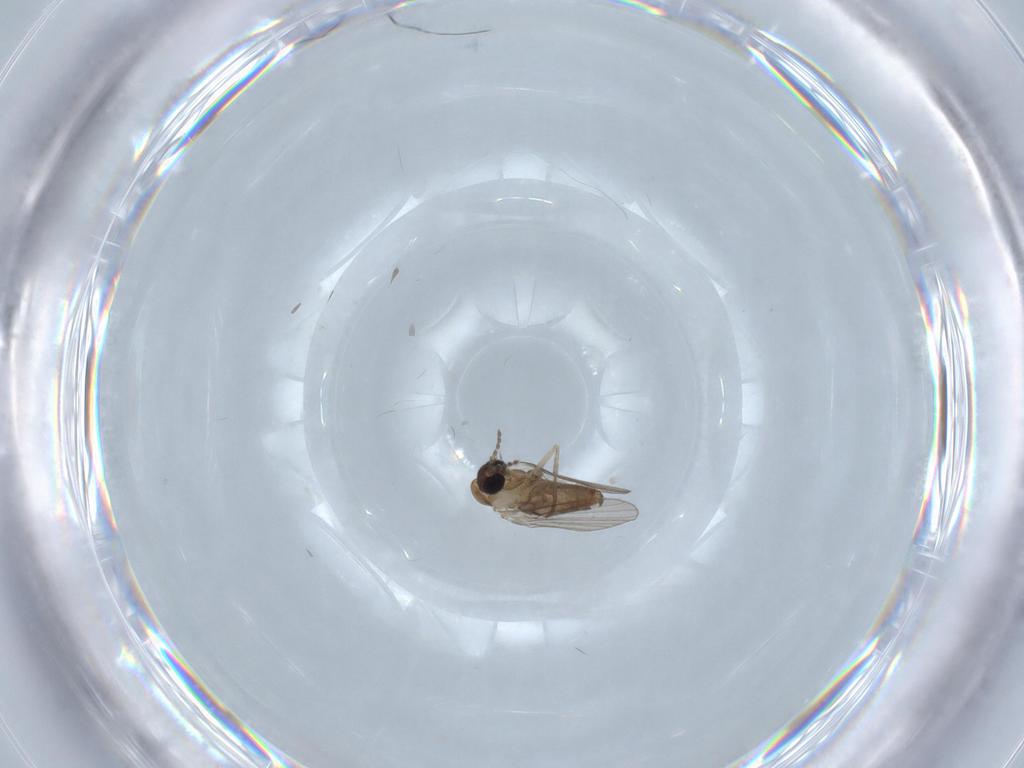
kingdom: Animalia
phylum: Arthropoda
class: Insecta
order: Diptera
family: Psychodidae
